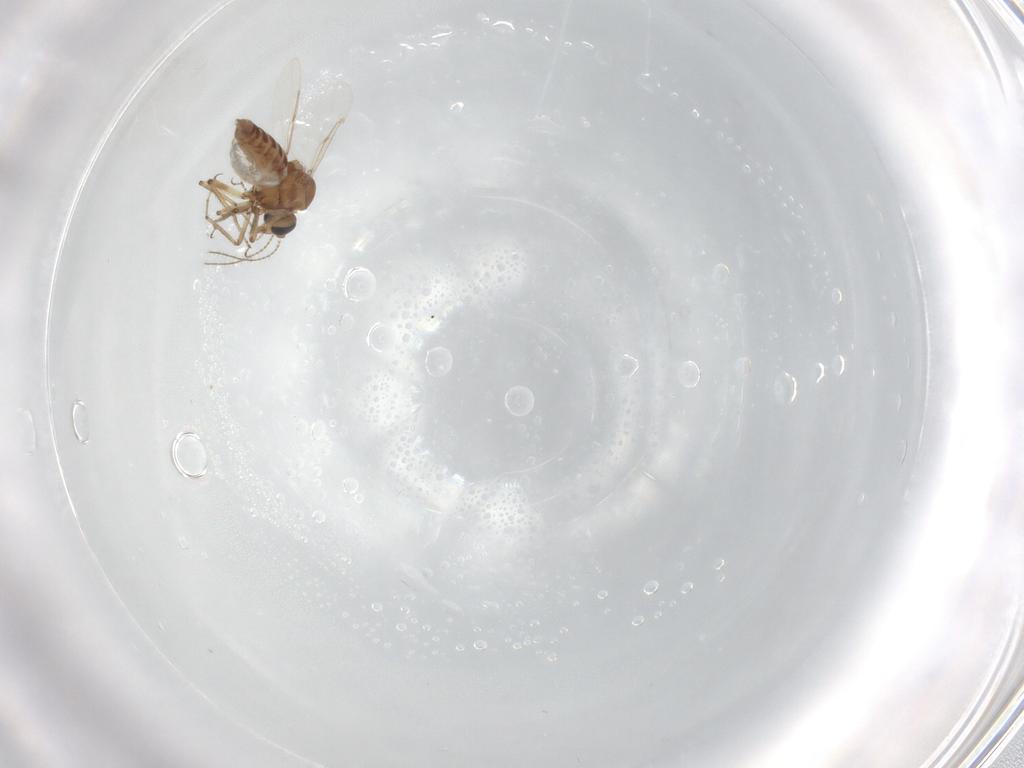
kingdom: Animalia
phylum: Arthropoda
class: Insecta
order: Diptera
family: Ceratopogonidae
